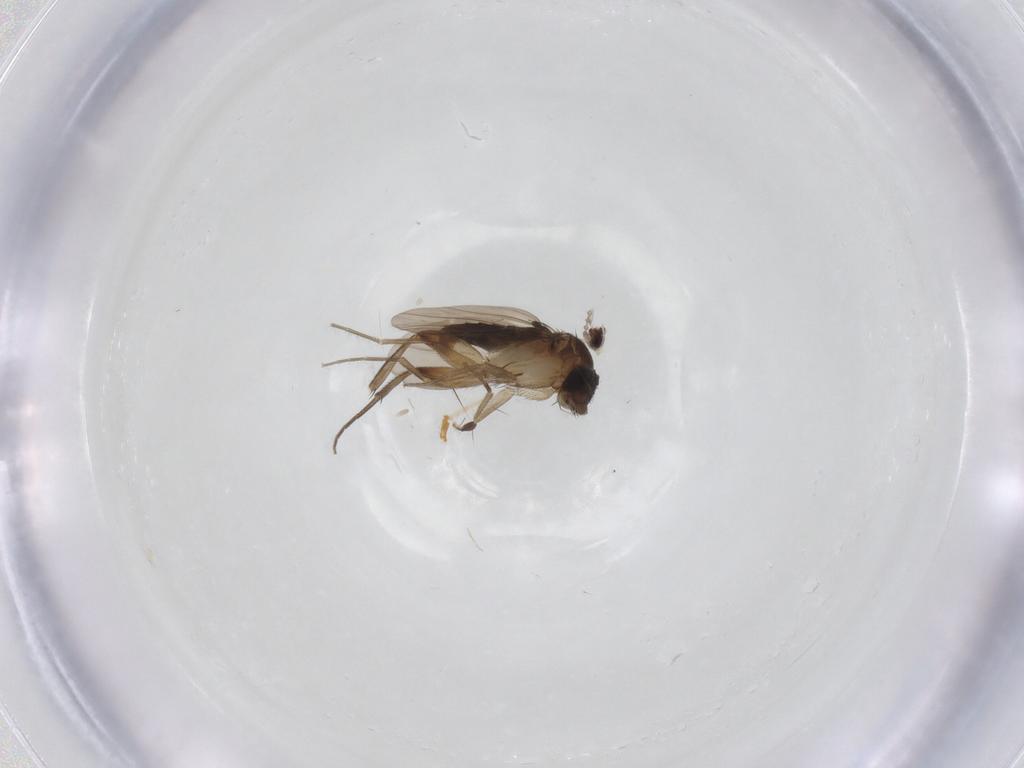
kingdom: Animalia
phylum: Arthropoda
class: Insecta
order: Diptera
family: Phoridae
